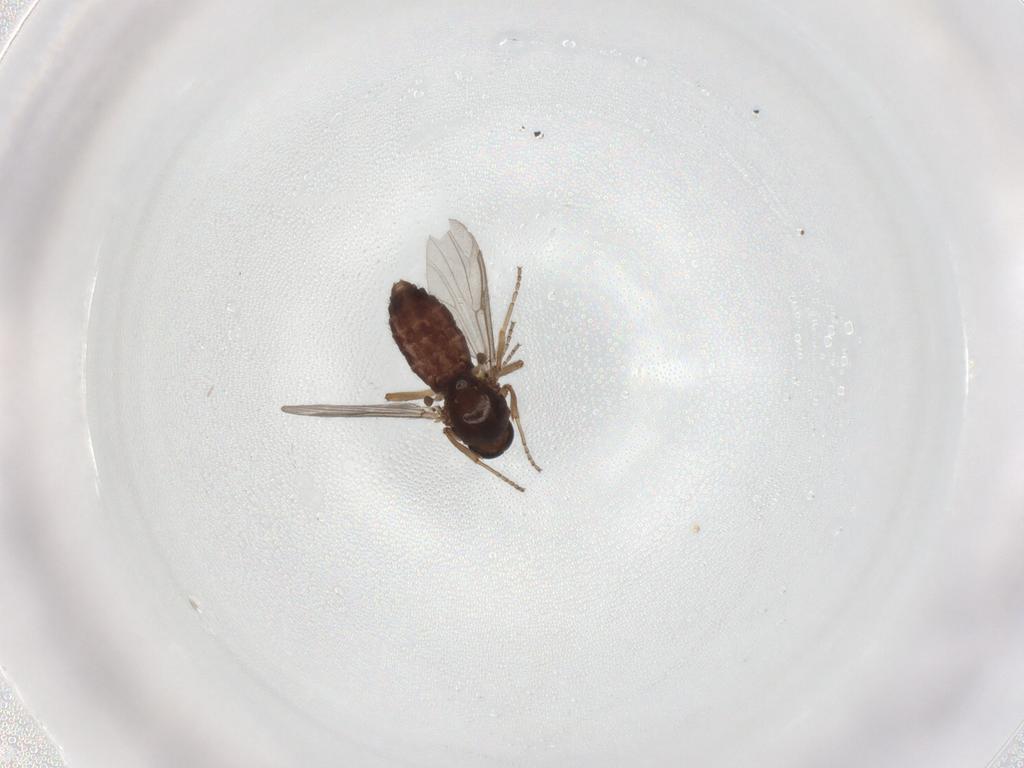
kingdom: Animalia
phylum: Arthropoda
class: Insecta
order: Diptera
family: Ceratopogonidae
